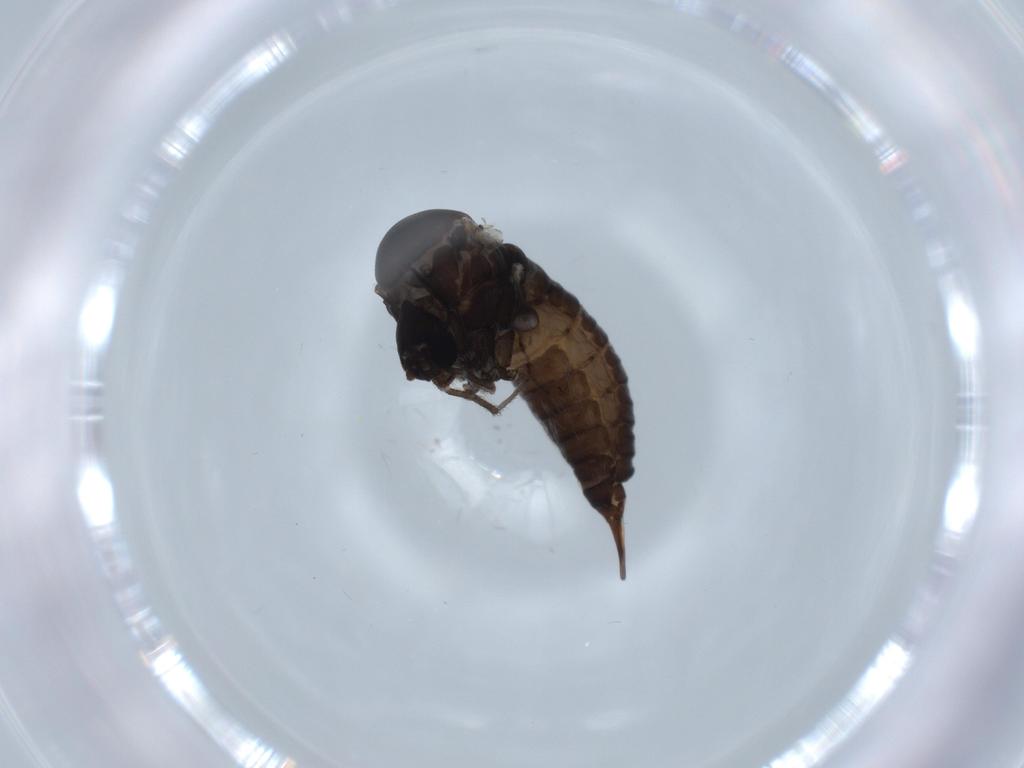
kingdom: Animalia
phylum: Arthropoda
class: Insecta
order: Diptera
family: Psychodidae
